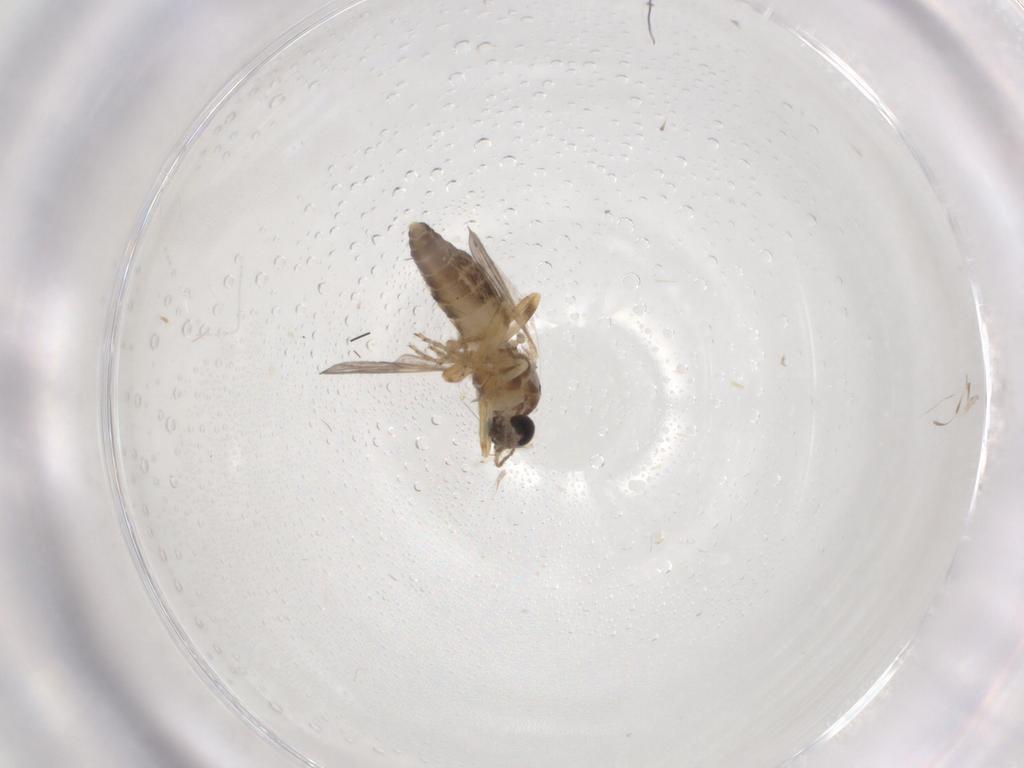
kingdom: Animalia
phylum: Arthropoda
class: Insecta
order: Diptera
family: Ceratopogonidae
